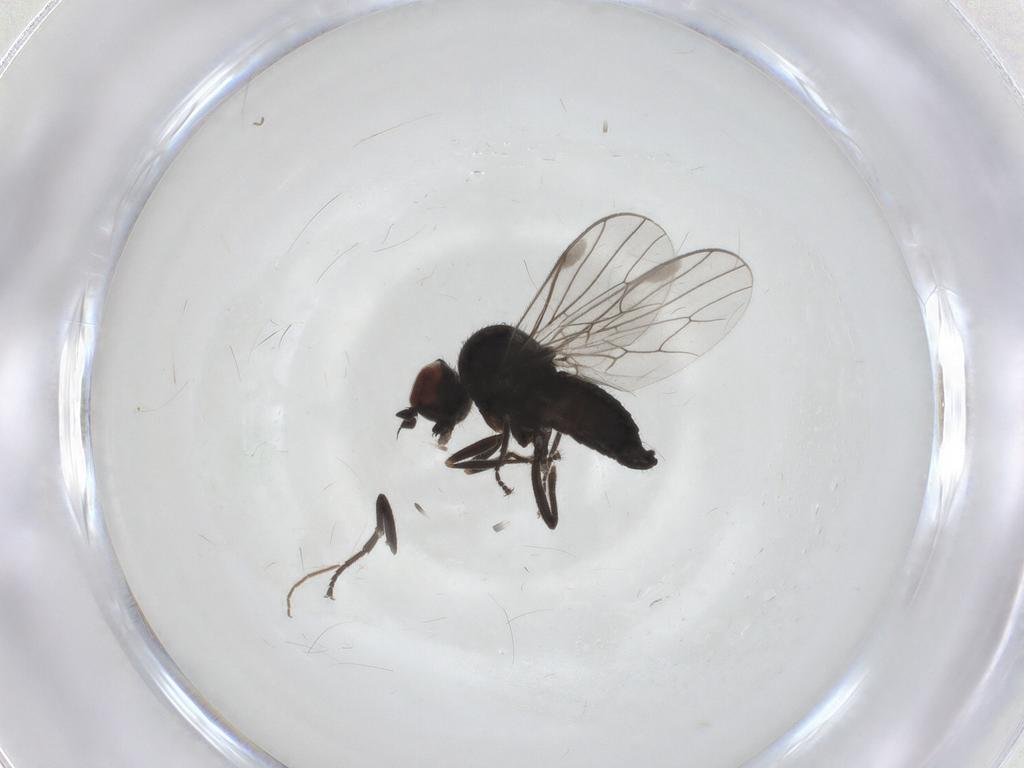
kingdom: Animalia
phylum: Arthropoda
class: Insecta
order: Diptera
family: Hybotidae
